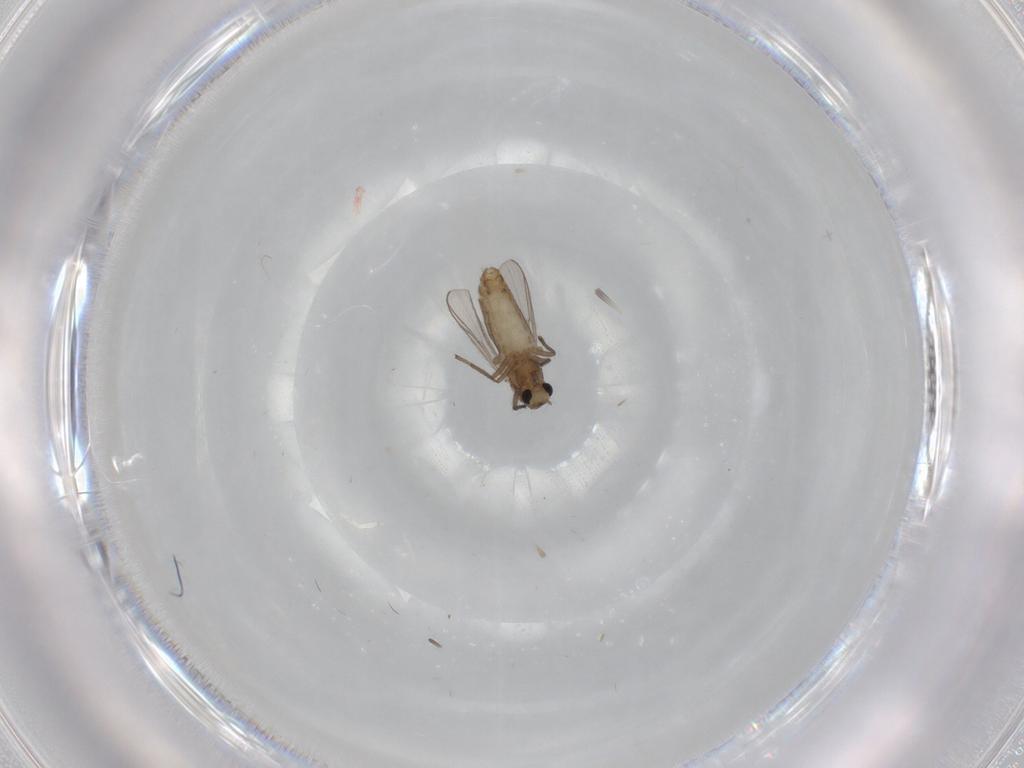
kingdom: Animalia
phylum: Arthropoda
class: Insecta
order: Diptera
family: Chironomidae
